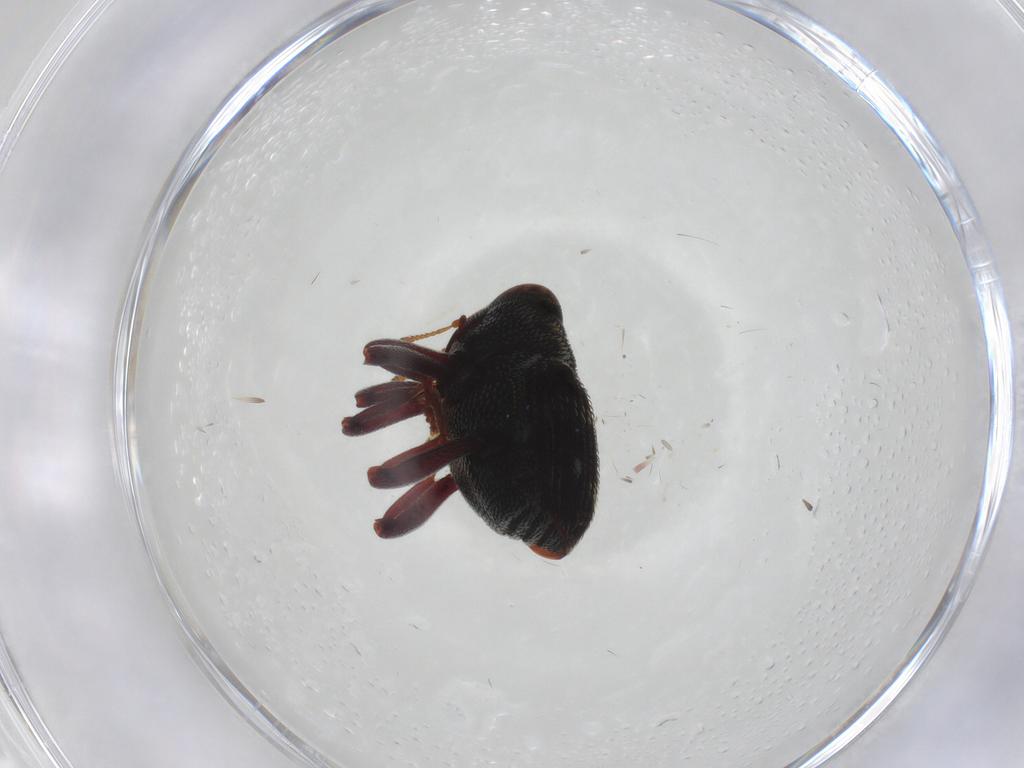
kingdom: Animalia
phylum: Arthropoda
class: Insecta
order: Coleoptera
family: Curculionidae
